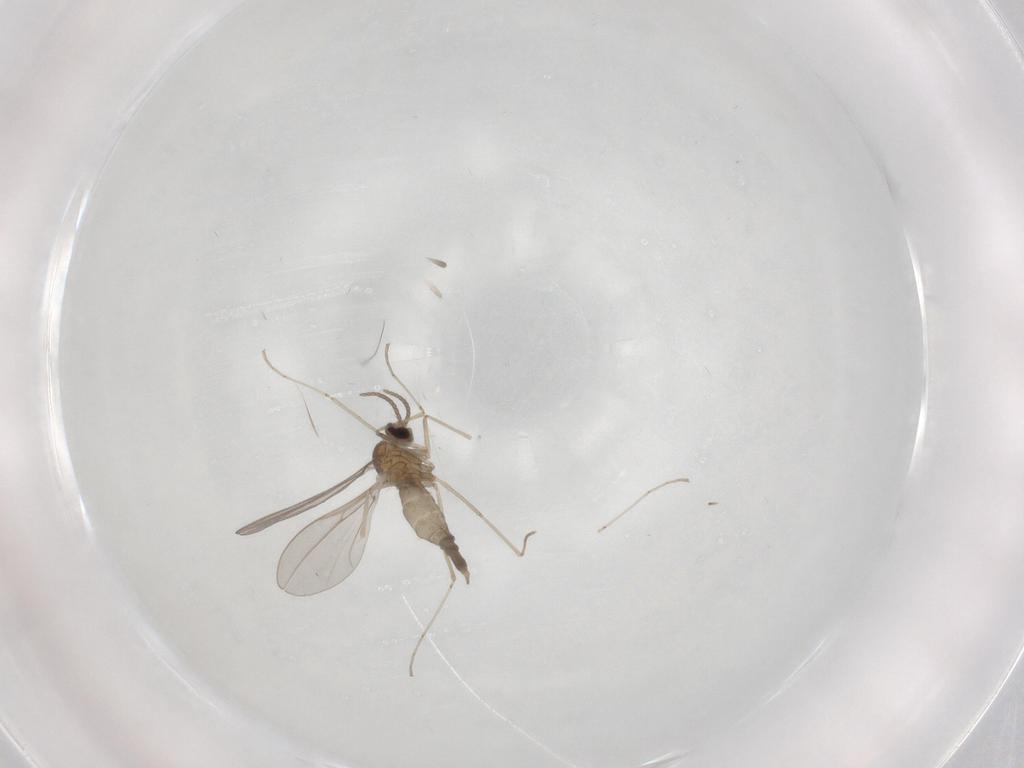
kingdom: Animalia
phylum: Arthropoda
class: Insecta
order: Diptera
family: Cecidomyiidae
